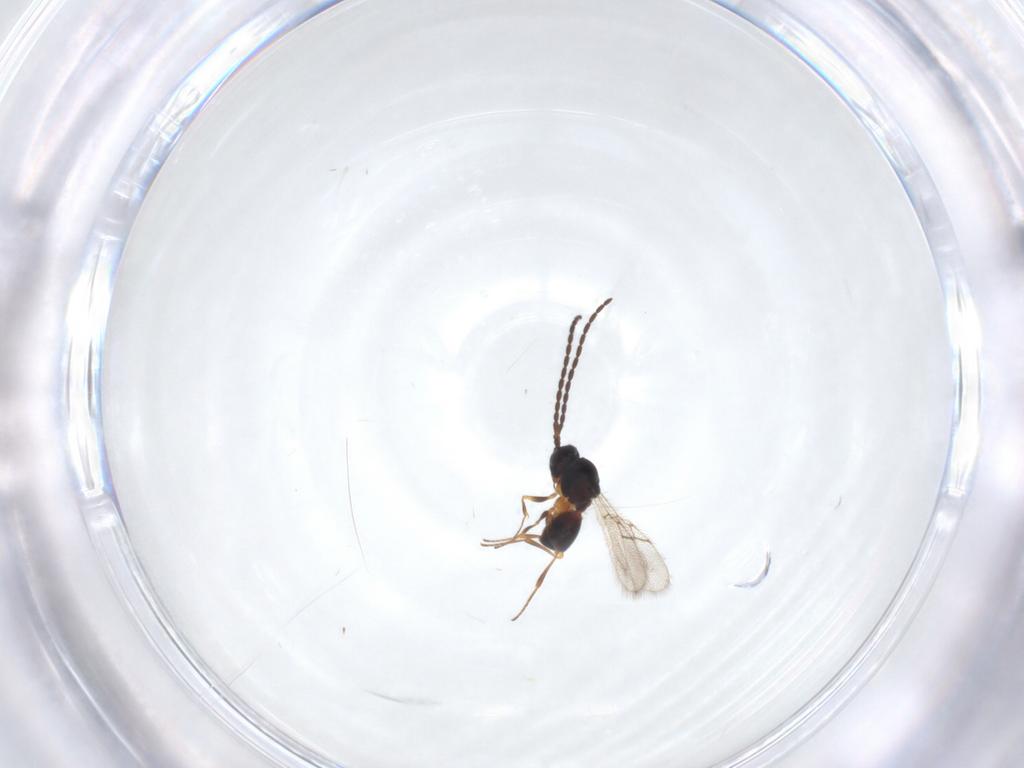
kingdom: Animalia
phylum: Arthropoda
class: Insecta
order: Hymenoptera
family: Figitidae
